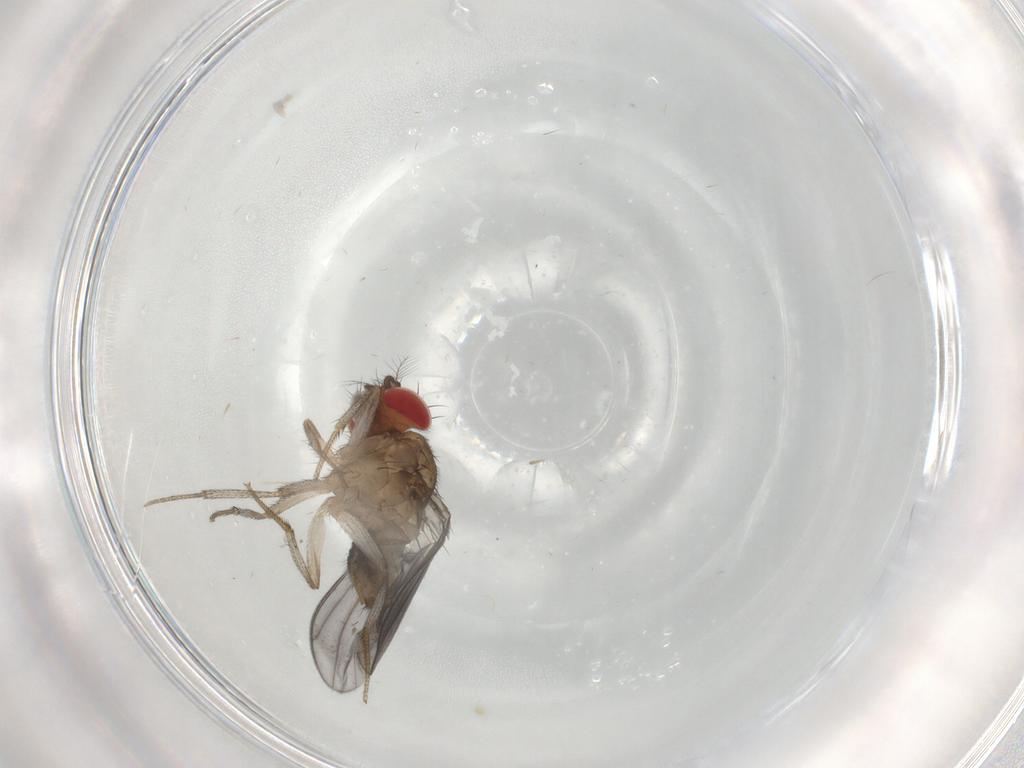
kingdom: Animalia
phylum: Arthropoda
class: Insecta
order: Diptera
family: Drosophilidae
